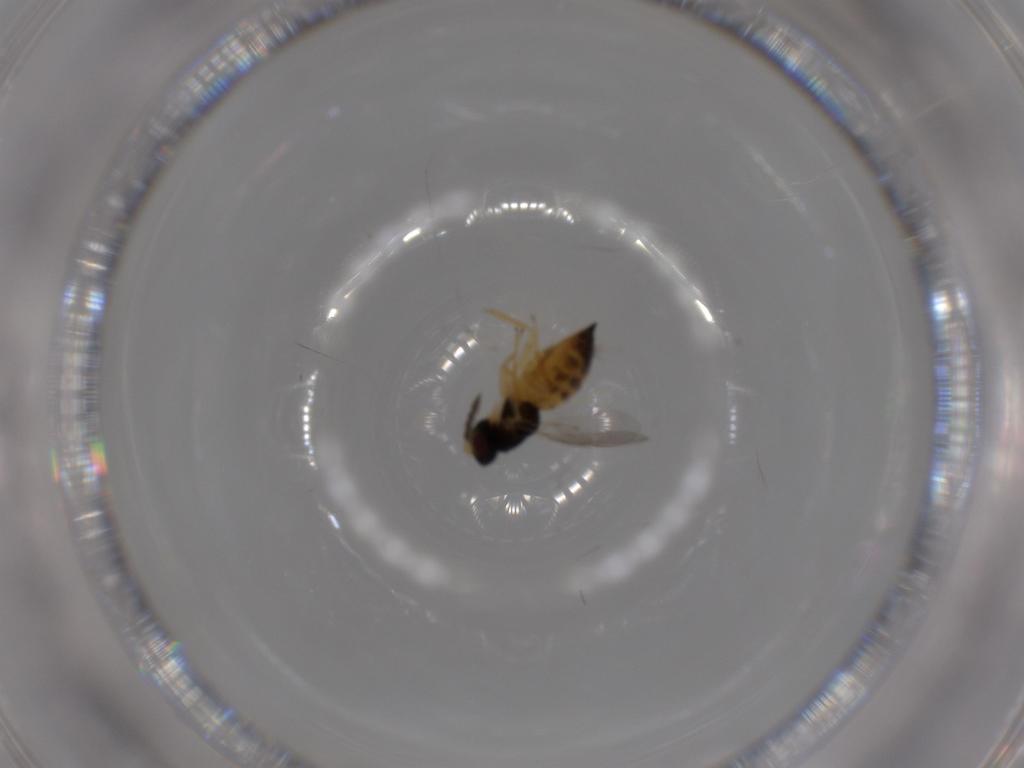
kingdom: Animalia
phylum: Arthropoda
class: Insecta
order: Hymenoptera
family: Eulophidae
